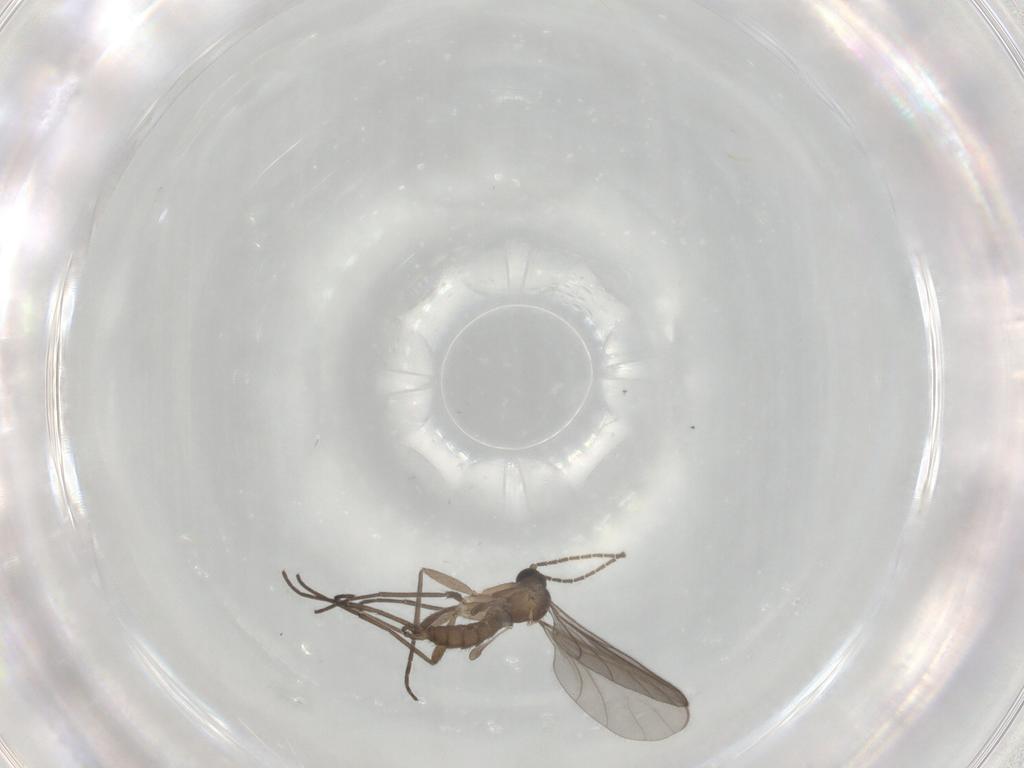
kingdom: Animalia
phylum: Arthropoda
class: Insecta
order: Diptera
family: Sciaridae
